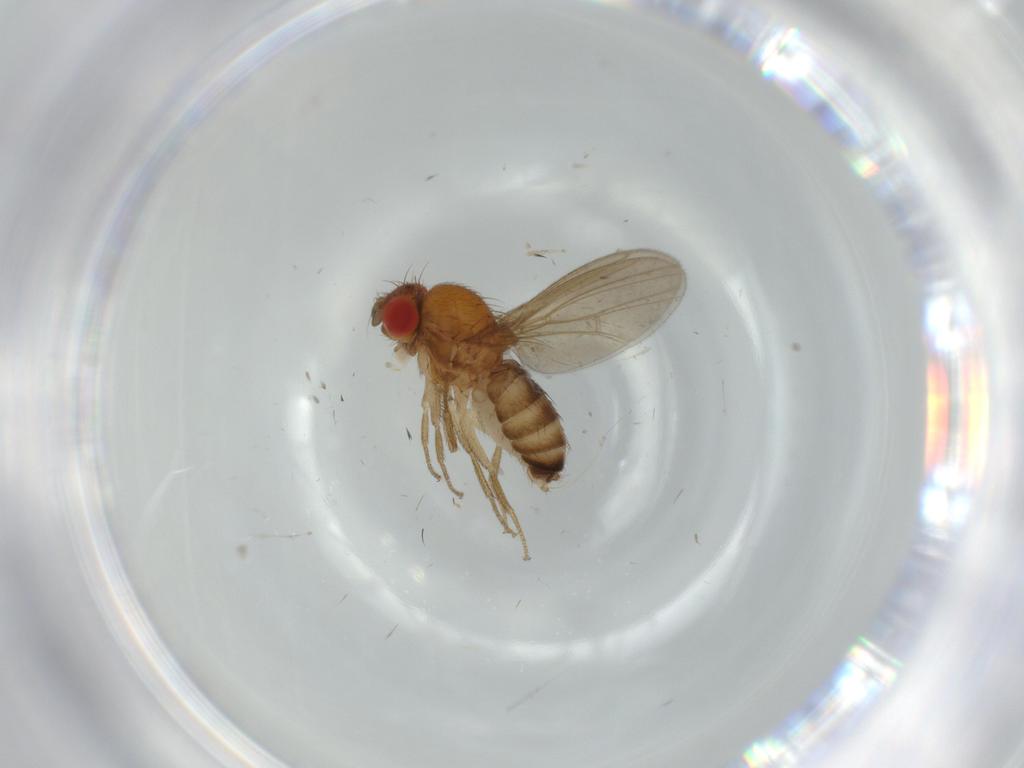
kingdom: Animalia
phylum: Arthropoda
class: Insecta
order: Diptera
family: Drosophilidae
